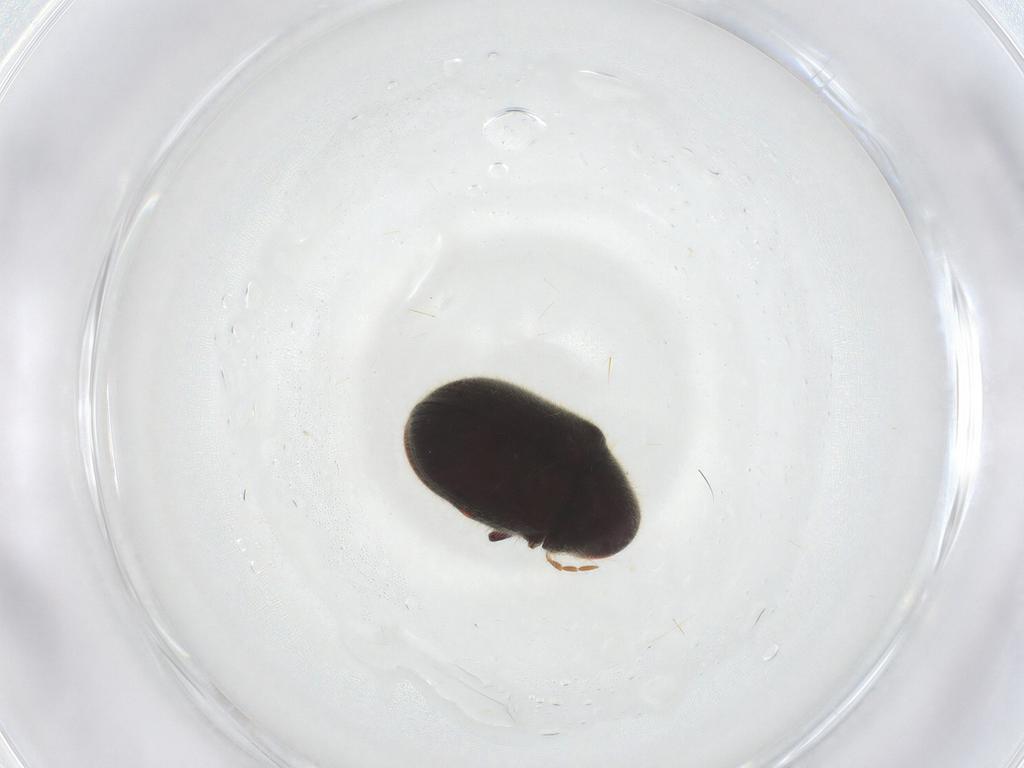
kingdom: Animalia
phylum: Arthropoda
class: Insecta
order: Coleoptera
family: Ptinidae
